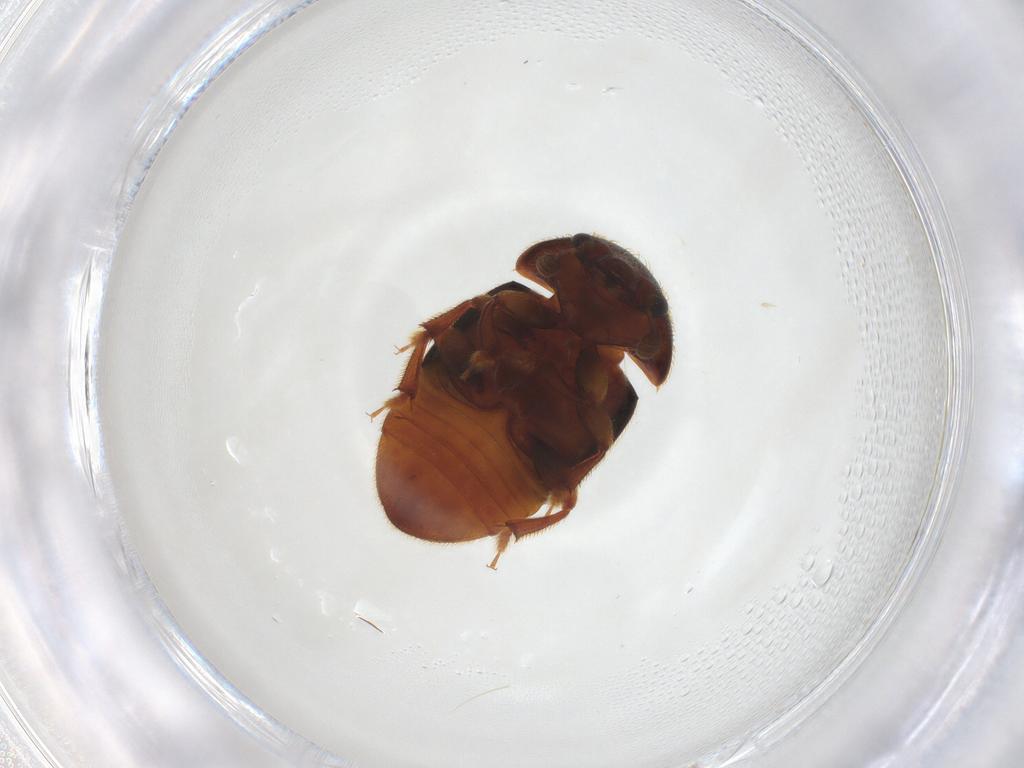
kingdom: Animalia
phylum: Arthropoda
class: Insecta
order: Coleoptera
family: Nitidulidae
